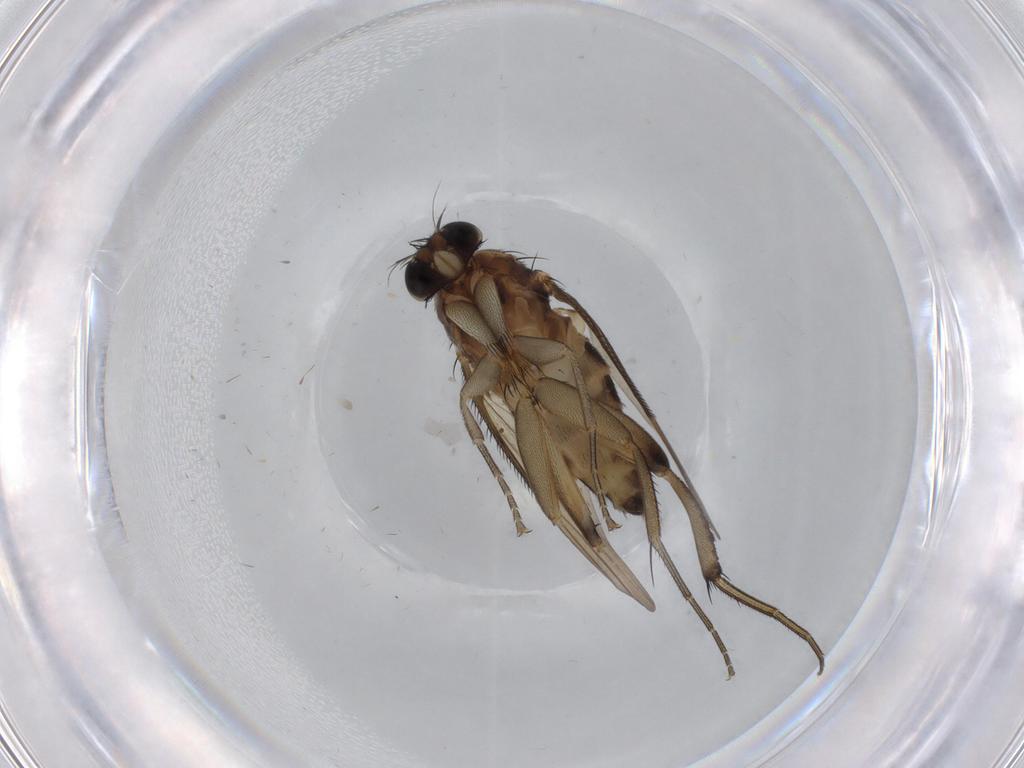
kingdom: Animalia
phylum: Arthropoda
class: Insecta
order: Diptera
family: Phoridae
